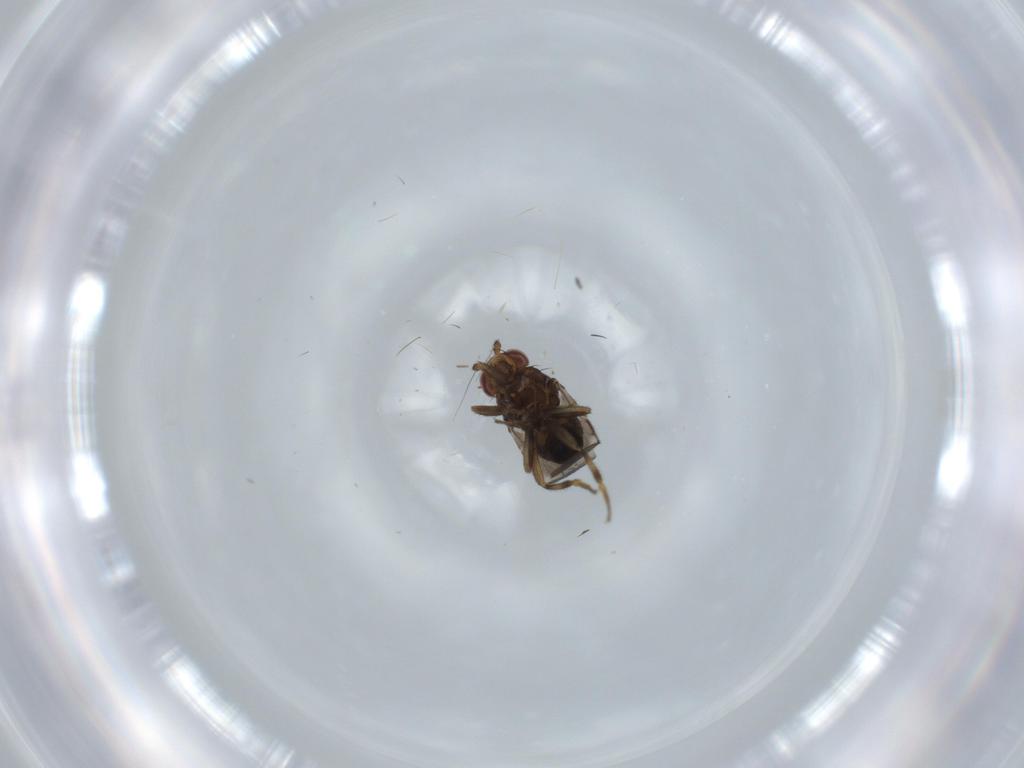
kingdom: Animalia
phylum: Arthropoda
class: Insecta
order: Diptera
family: Sphaeroceridae
